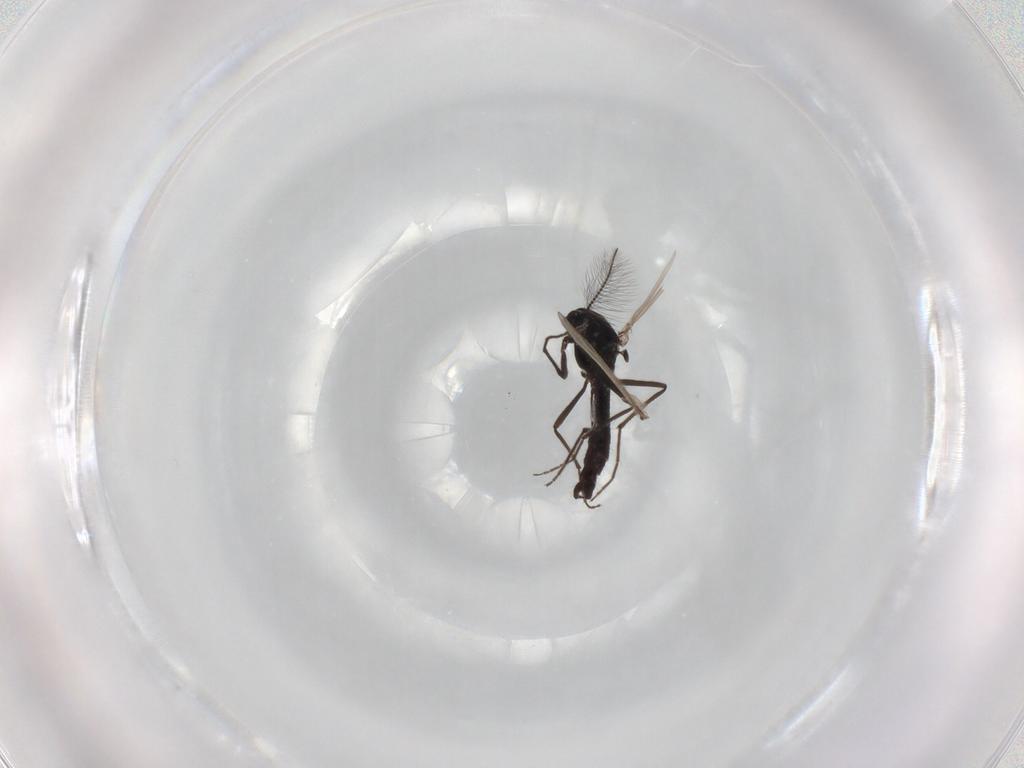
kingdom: Animalia
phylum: Arthropoda
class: Insecta
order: Diptera
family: Chironomidae
